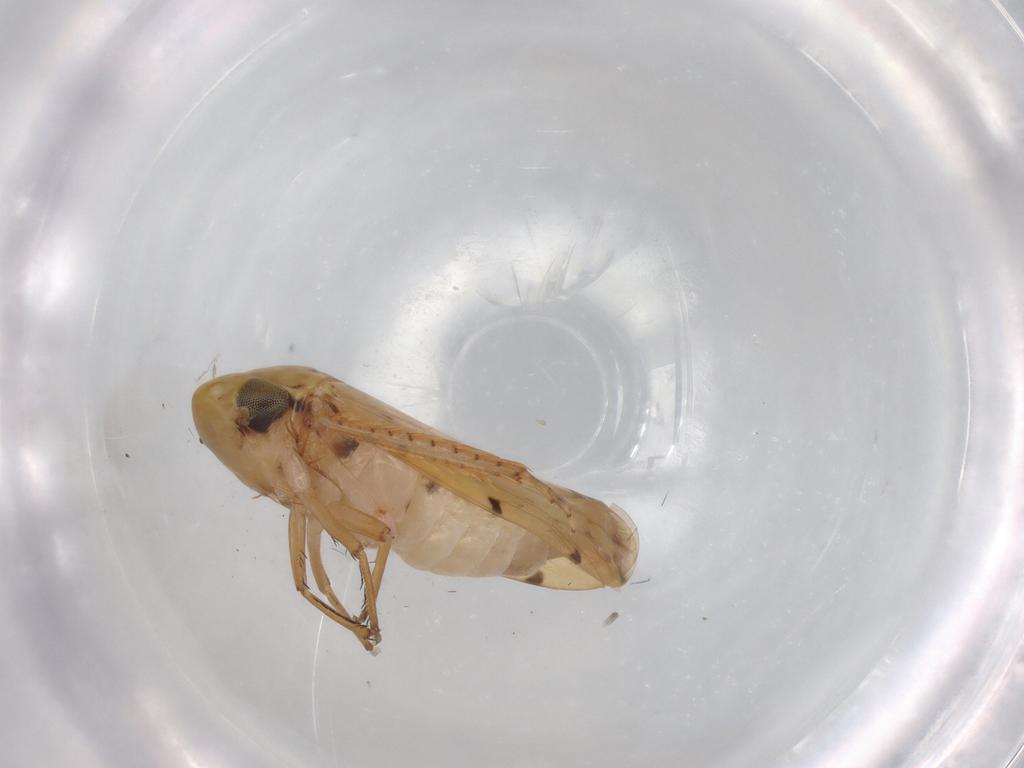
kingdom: Animalia
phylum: Arthropoda
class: Insecta
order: Hemiptera
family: Cicadellidae
